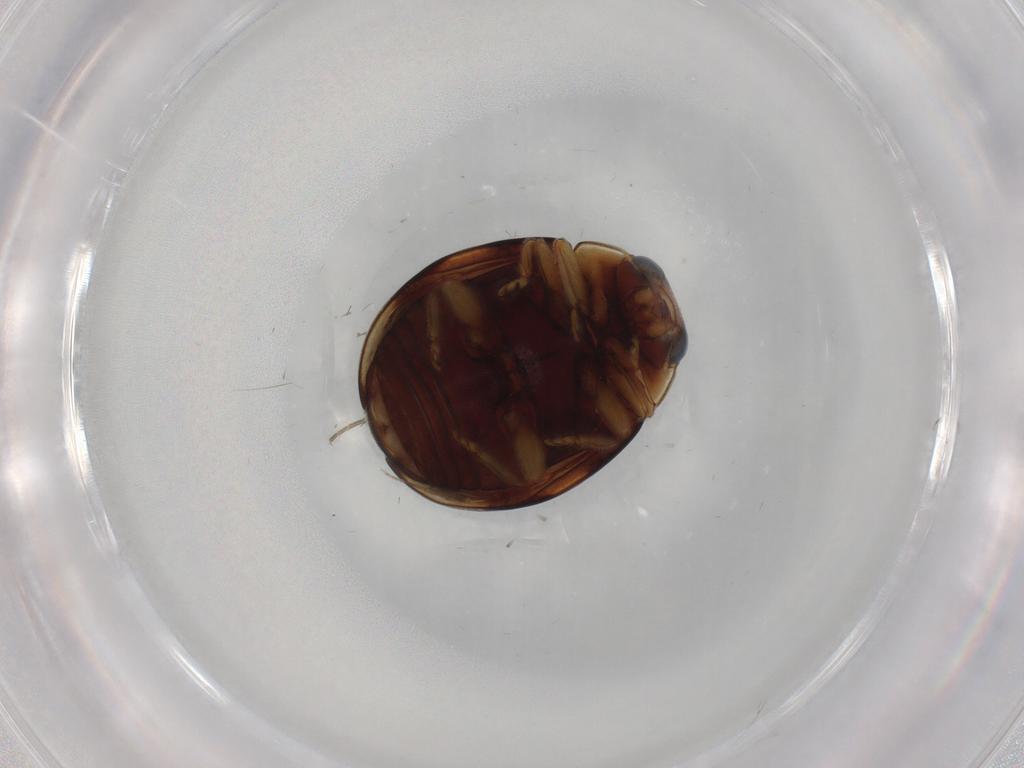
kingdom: Animalia
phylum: Arthropoda
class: Insecta
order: Coleoptera
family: Coccinellidae
